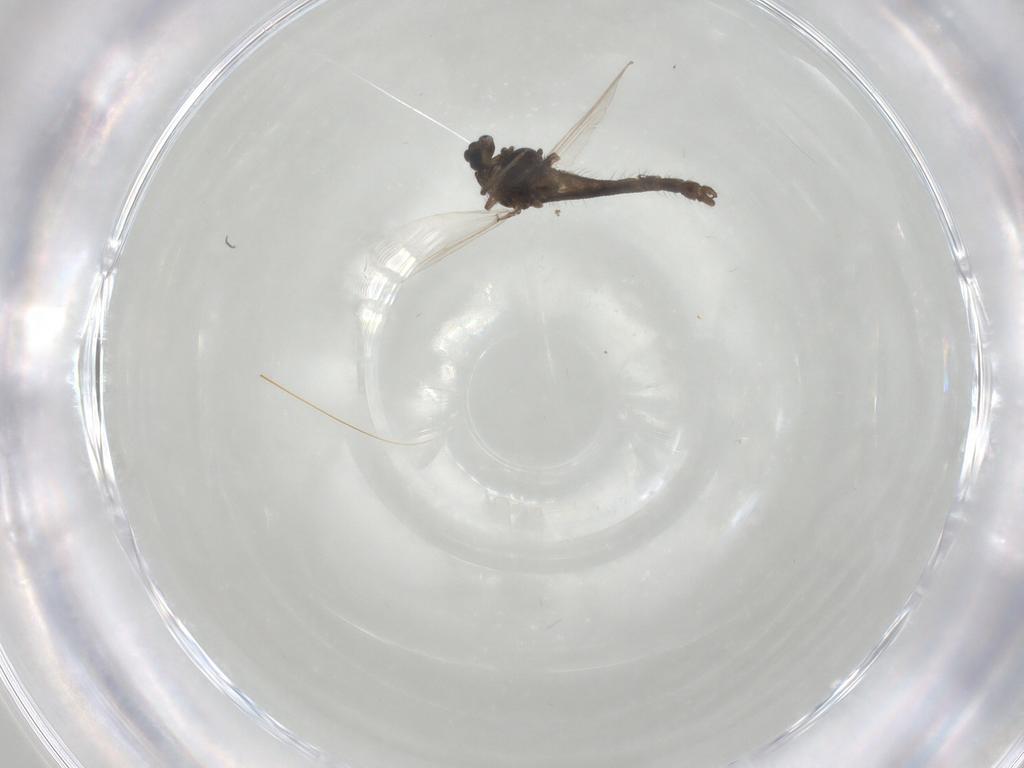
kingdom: Animalia
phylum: Arthropoda
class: Insecta
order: Diptera
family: Chironomidae
